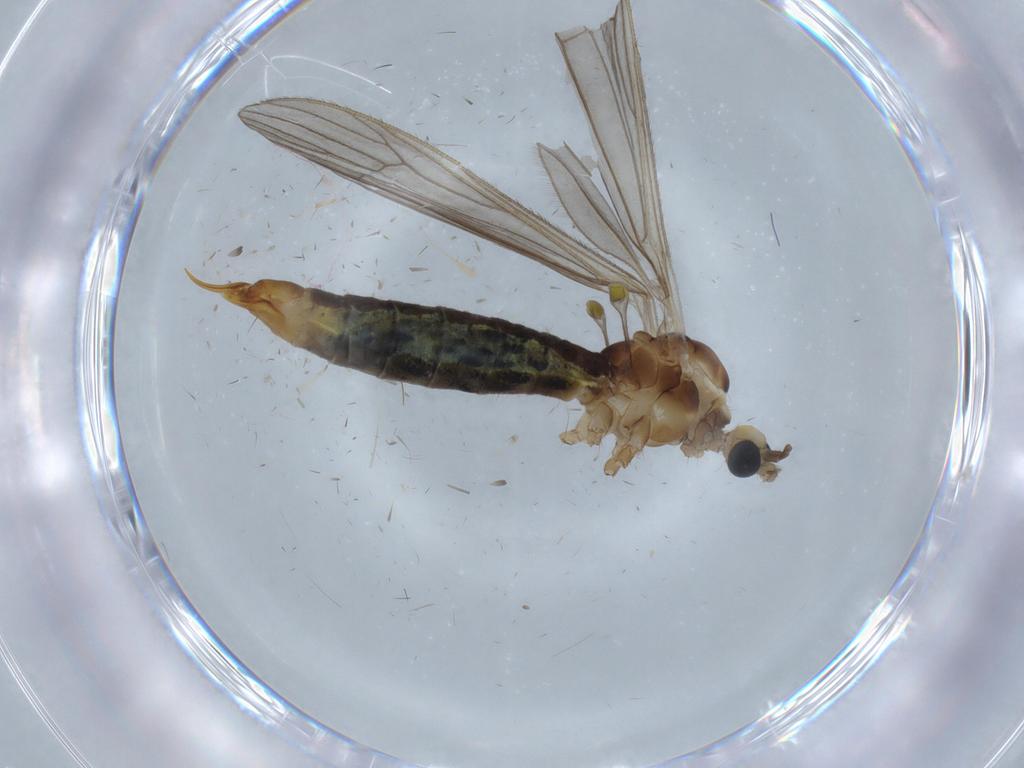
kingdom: Animalia
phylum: Arthropoda
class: Insecta
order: Diptera
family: Limoniidae
